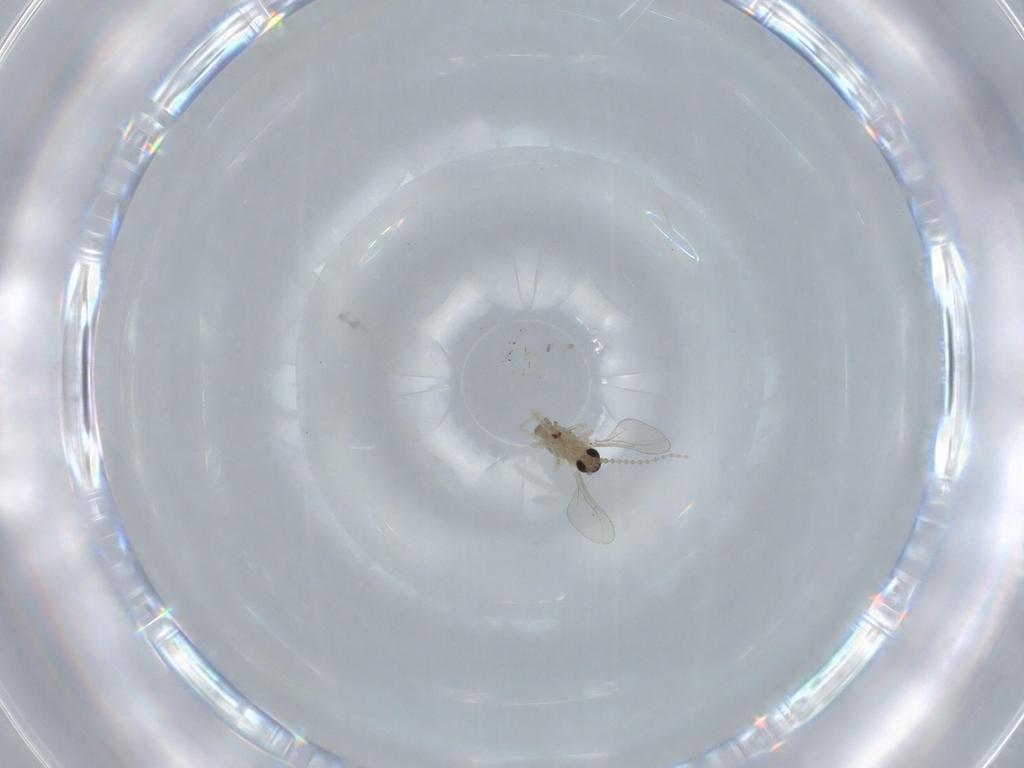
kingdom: Animalia
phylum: Arthropoda
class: Insecta
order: Diptera
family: Cecidomyiidae
